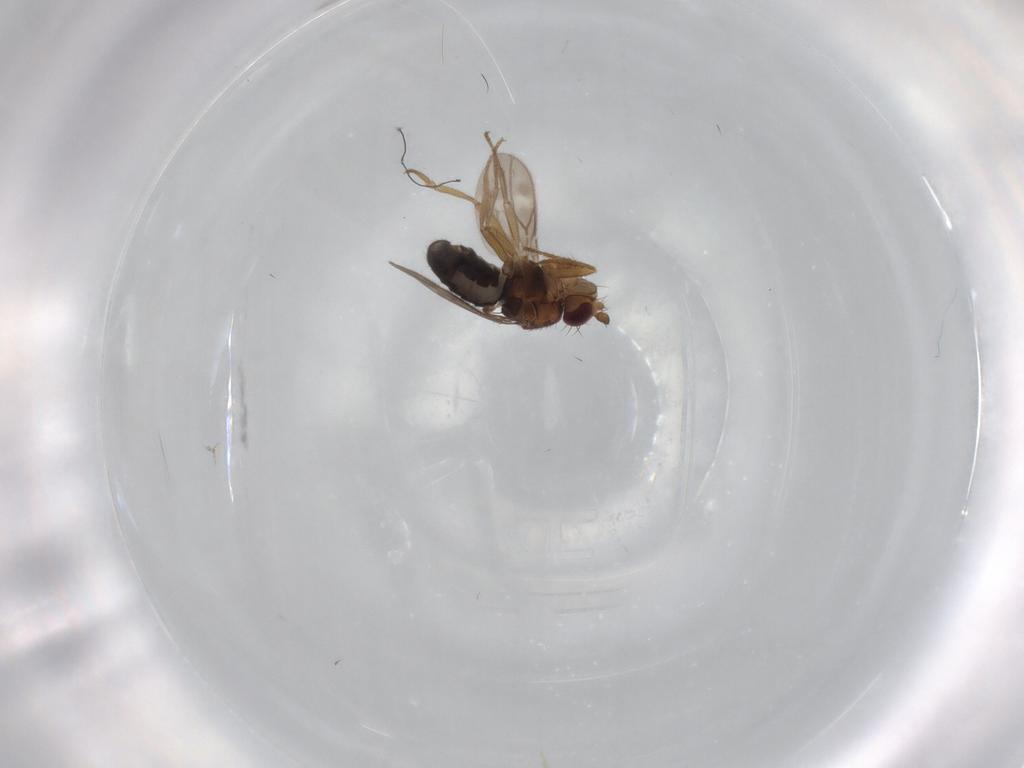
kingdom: Animalia
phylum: Arthropoda
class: Insecta
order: Diptera
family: Sphaeroceridae
